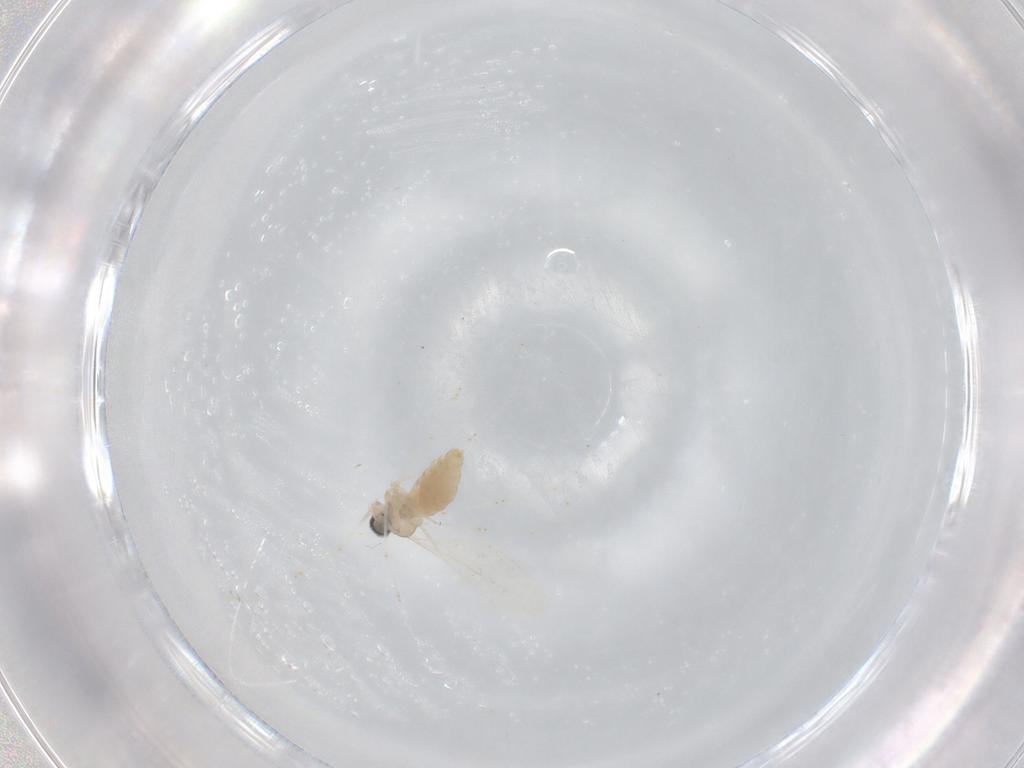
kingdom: Animalia
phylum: Arthropoda
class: Insecta
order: Diptera
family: Cecidomyiidae
